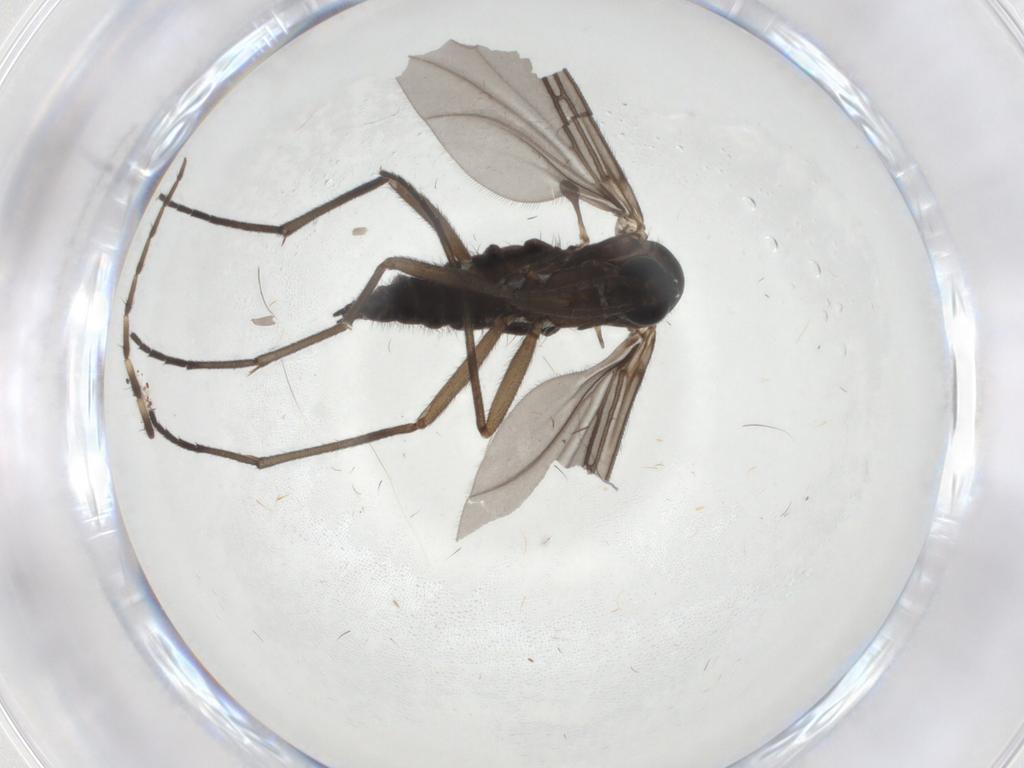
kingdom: Animalia
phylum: Arthropoda
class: Insecta
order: Diptera
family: Sciaridae
